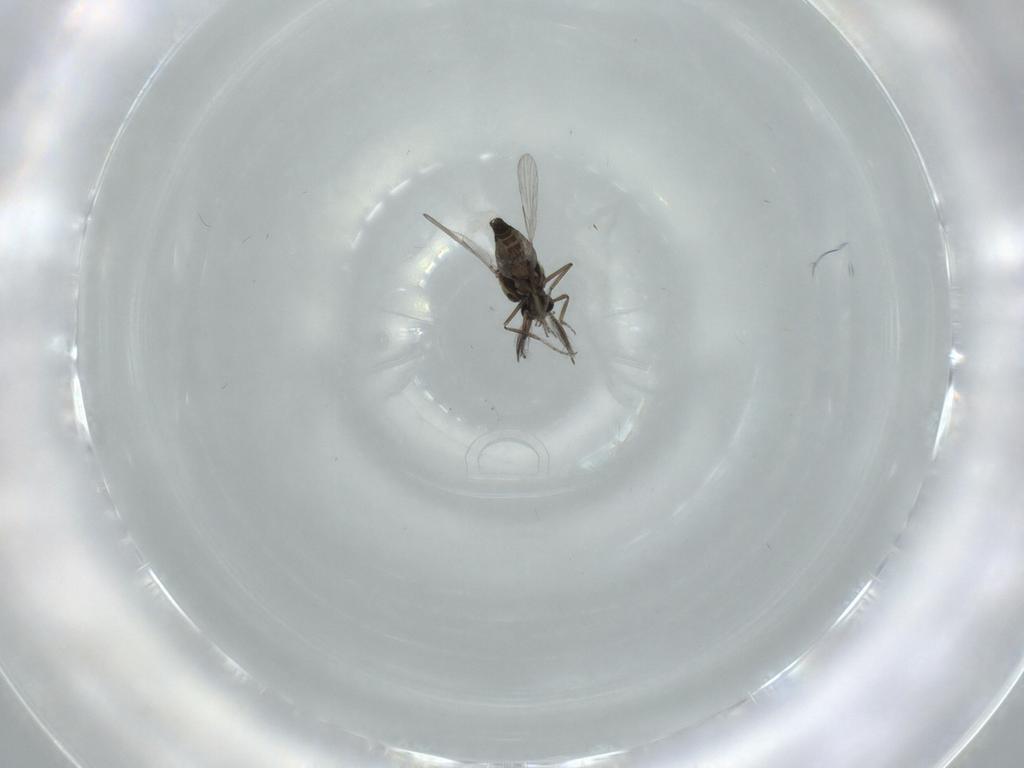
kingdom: Animalia
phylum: Arthropoda
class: Insecta
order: Diptera
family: Ceratopogonidae
